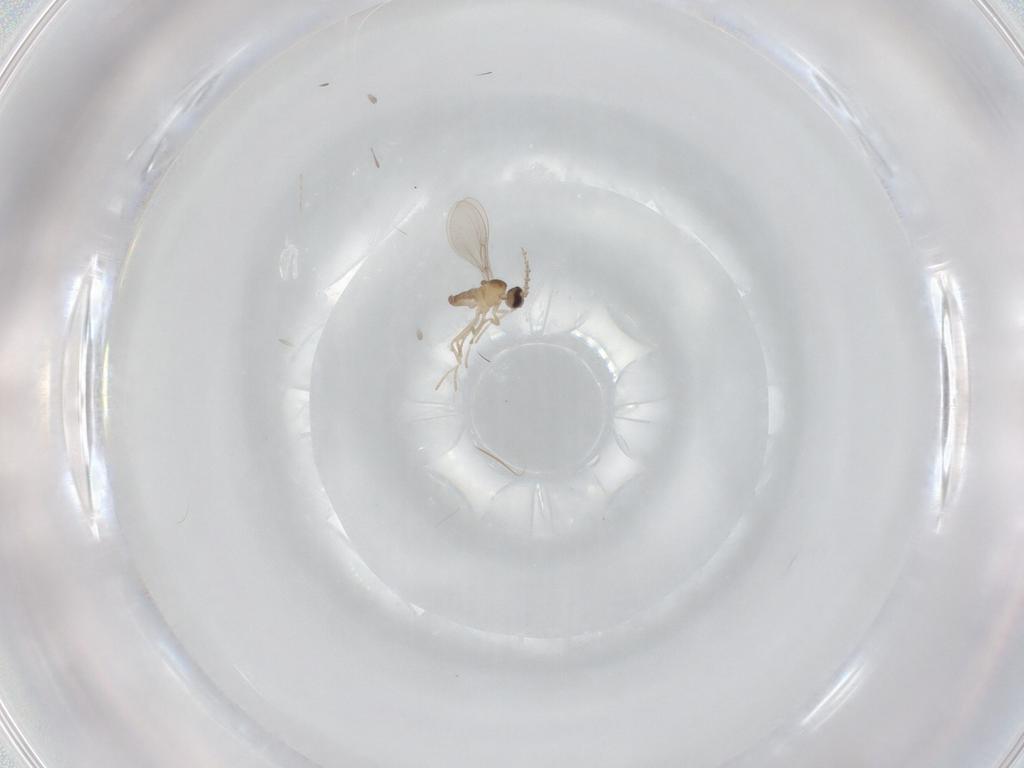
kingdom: Animalia
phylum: Arthropoda
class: Insecta
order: Diptera
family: Cecidomyiidae
